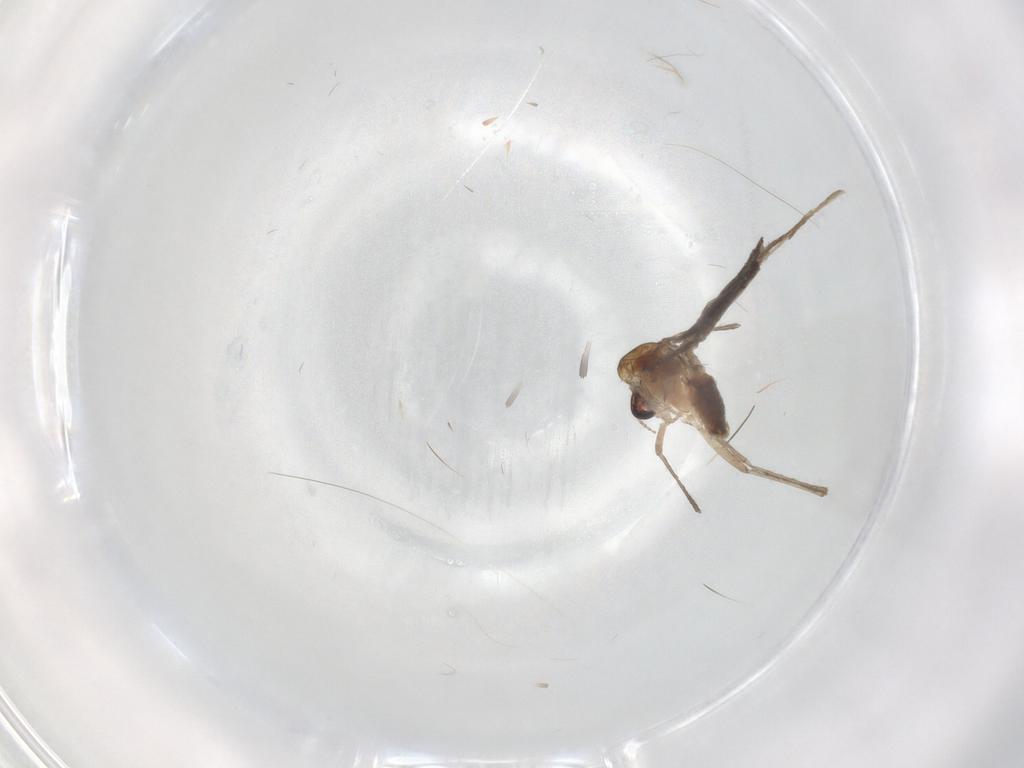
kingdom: Animalia
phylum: Arthropoda
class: Insecta
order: Diptera
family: Chironomidae
